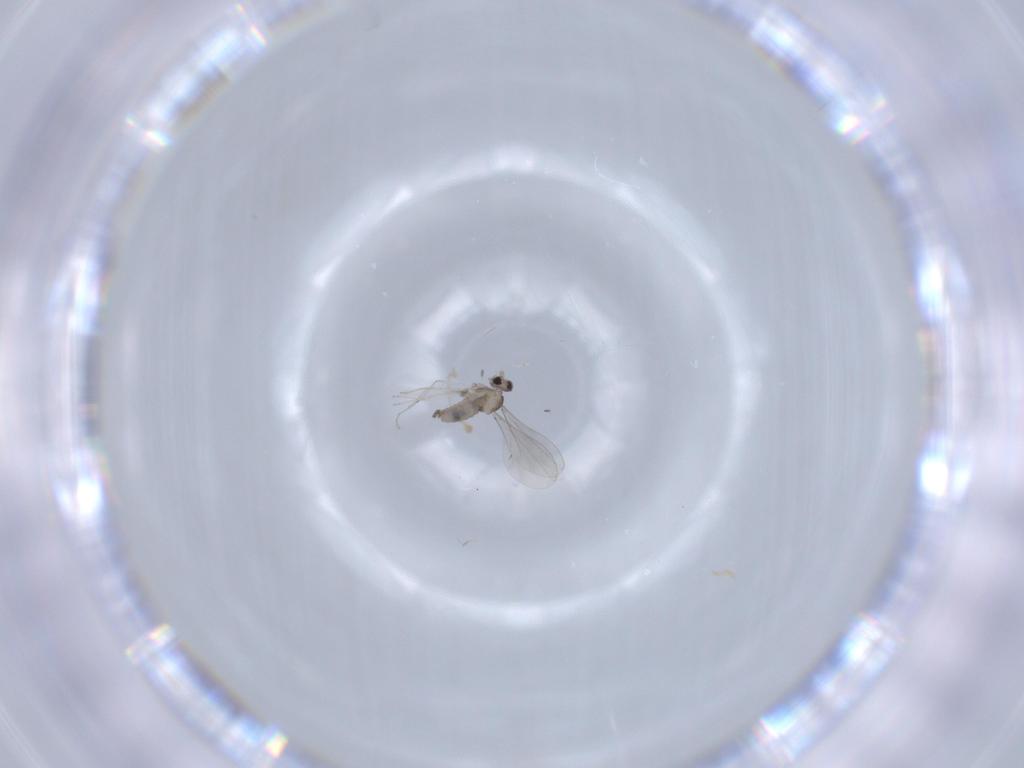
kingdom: Animalia
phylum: Arthropoda
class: Insecta
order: Diptera
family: Cecidomyiidae
